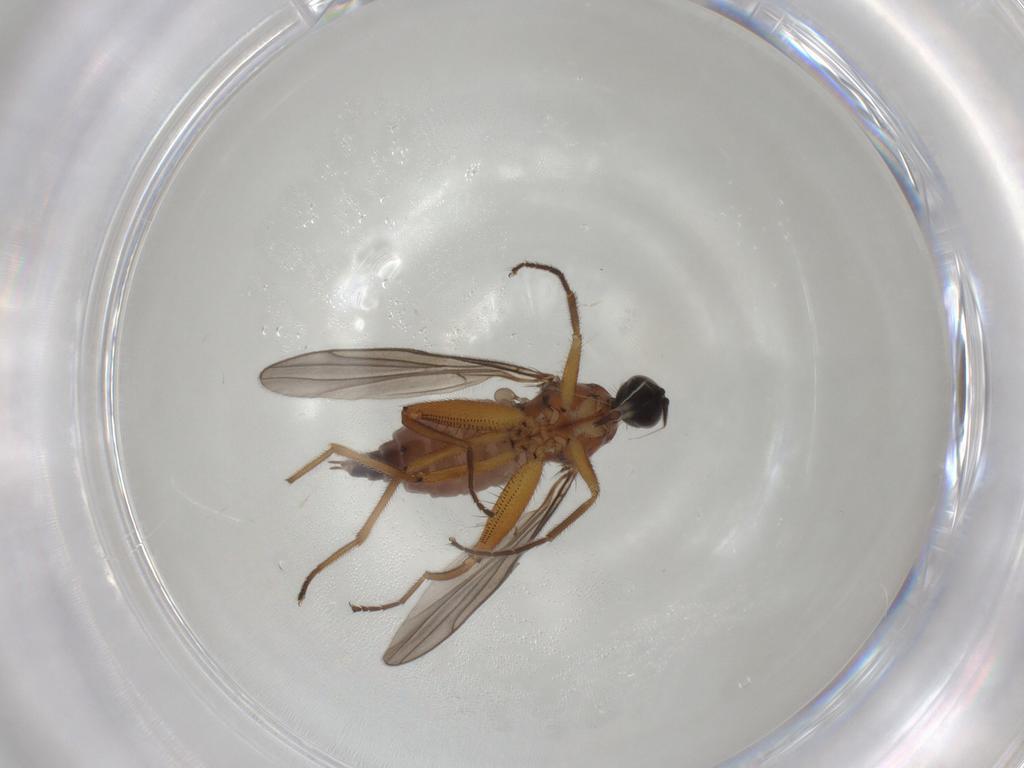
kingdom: Animalia
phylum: Arthropoda
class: Insecta
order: Diptera
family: Hybotidae
